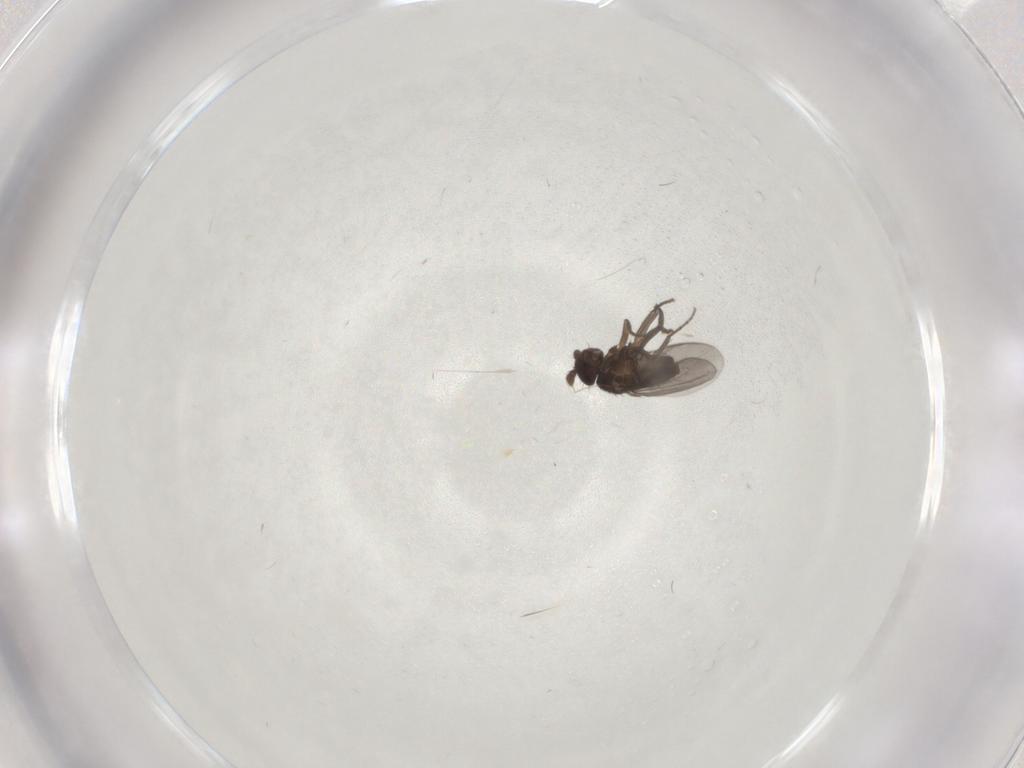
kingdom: Animalia
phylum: Arthropoda
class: Insecta
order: Diptera
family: Sphaeroceridae
